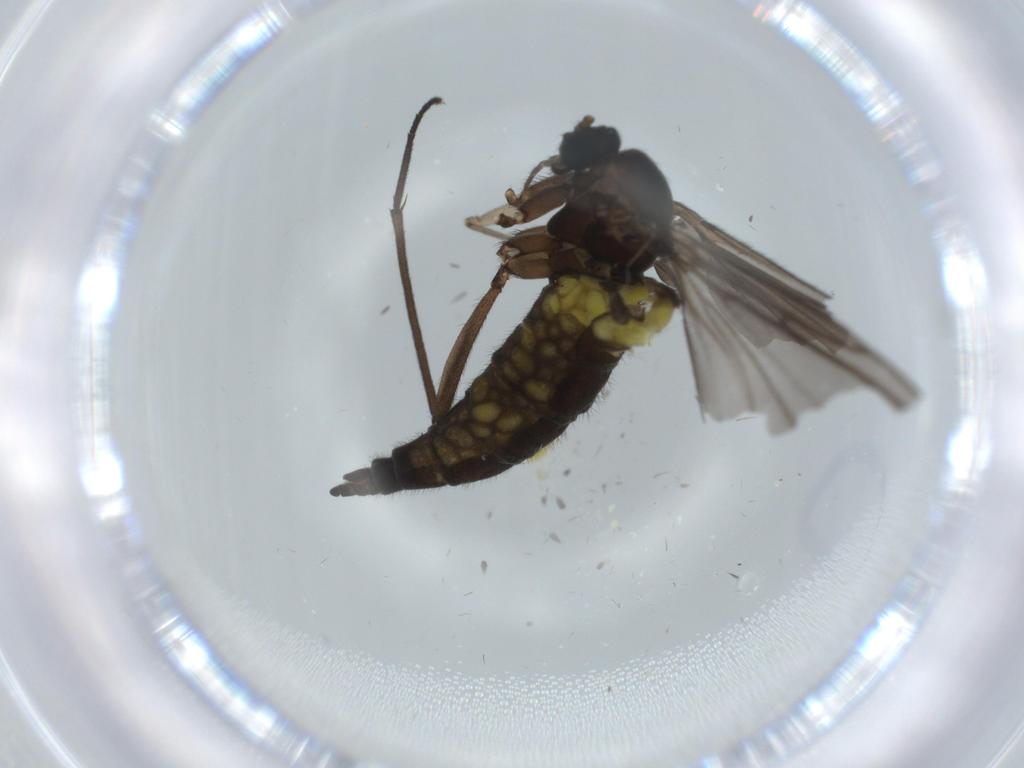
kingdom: Animalia
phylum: Arthropoda
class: Insecta
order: Diptera
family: Sciaridae
